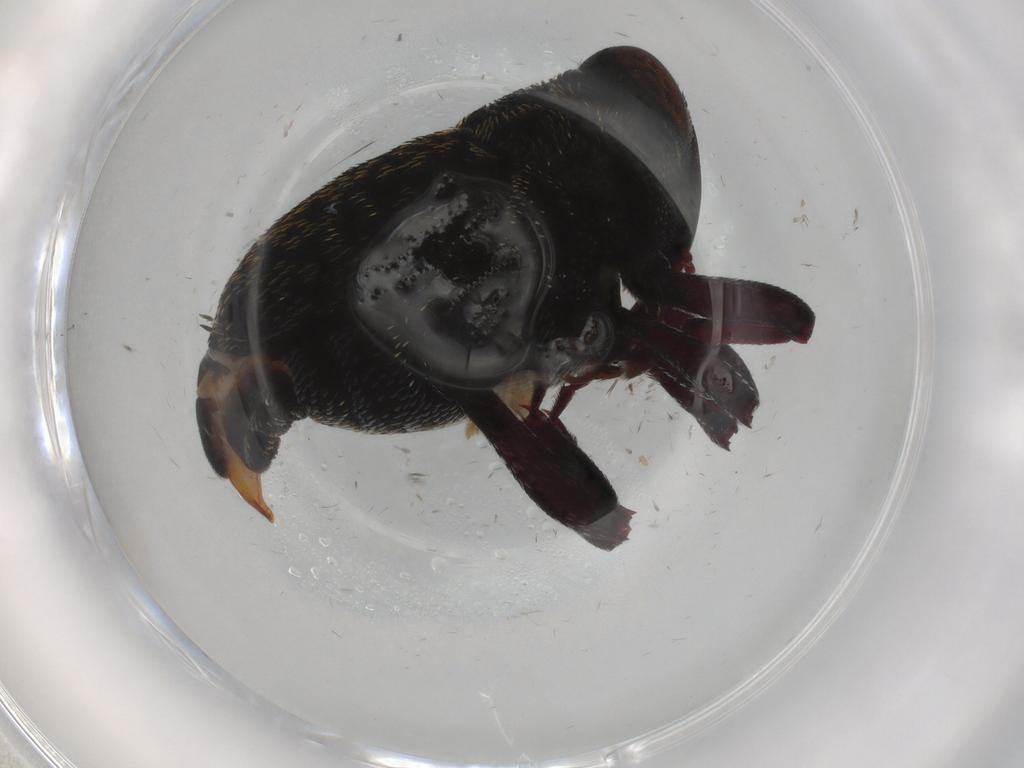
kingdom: Animalia
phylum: Arthropoda
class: Insecta
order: Coleoptera
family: Ptilodactylidae
